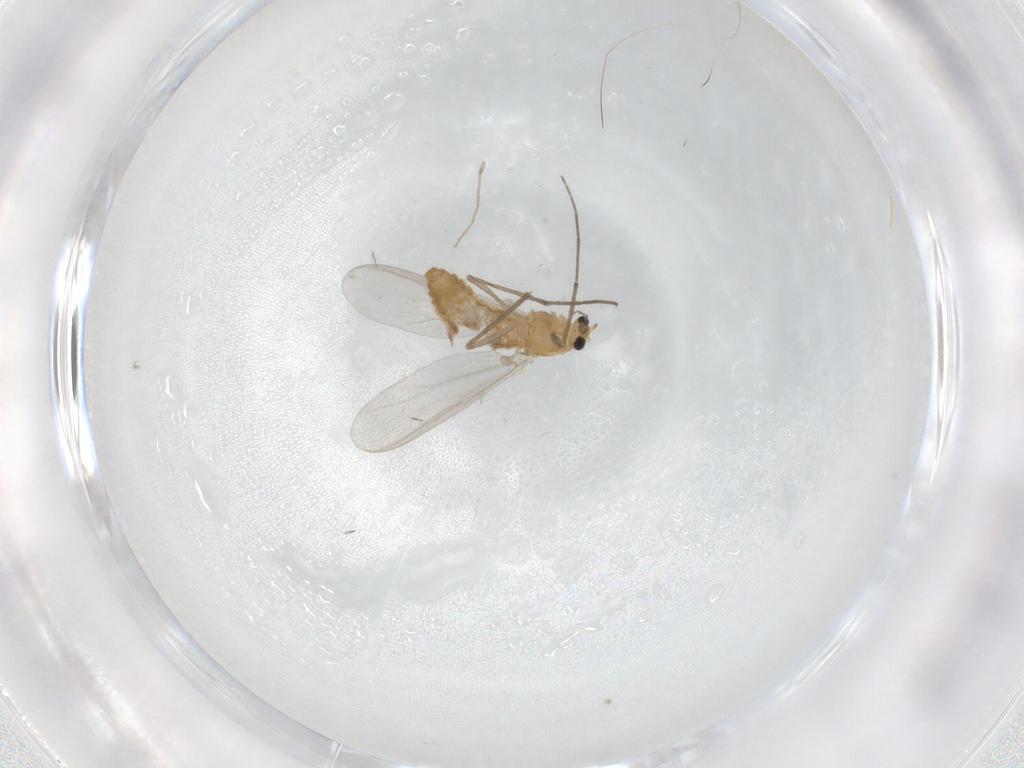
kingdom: Animalia
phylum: Arthropoda
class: Insecta
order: Diptera
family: Chironomidae
